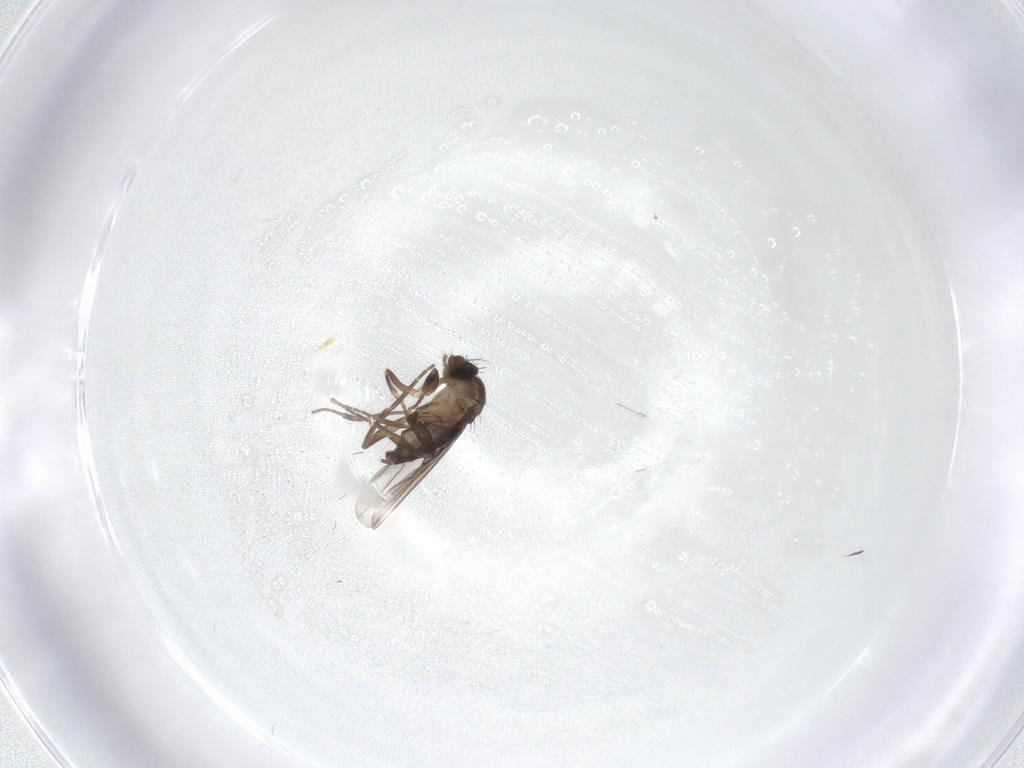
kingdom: Animalia
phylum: Arthropoda
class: Insecta
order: Diptera
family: Phoridae
